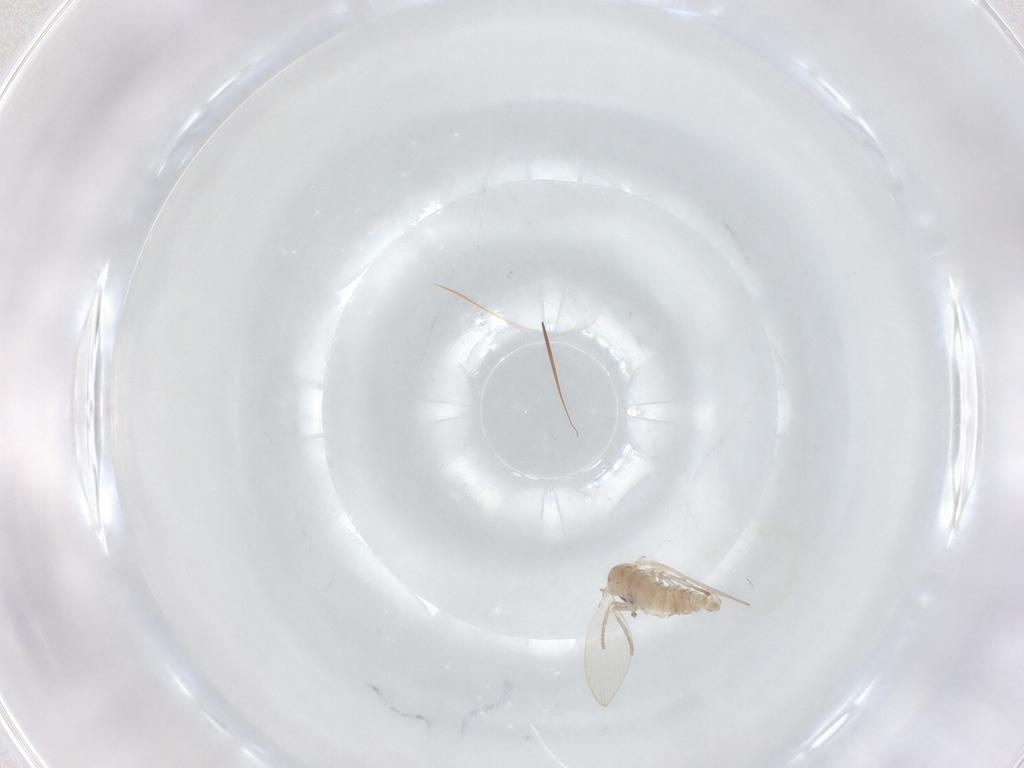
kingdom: Animalia
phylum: Arthropoda
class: Insecta
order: Diptera
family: Psychodidae
